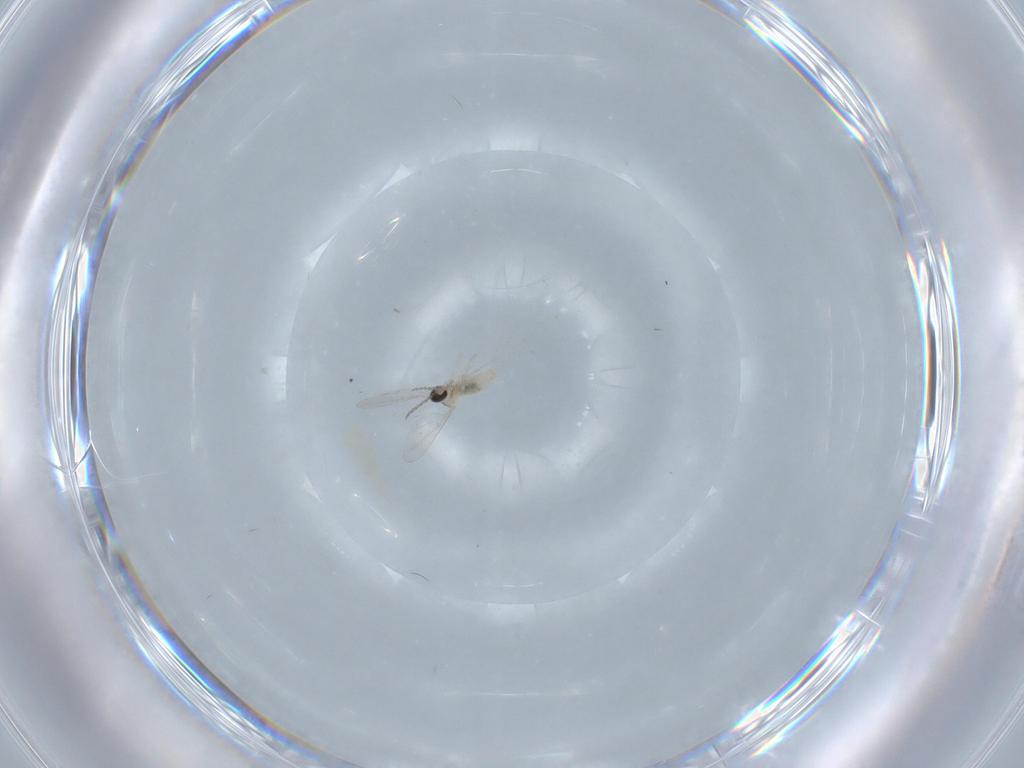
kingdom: Animalia
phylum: Arthropoda
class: Insecta
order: Diptera
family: Cecidomyiidae
